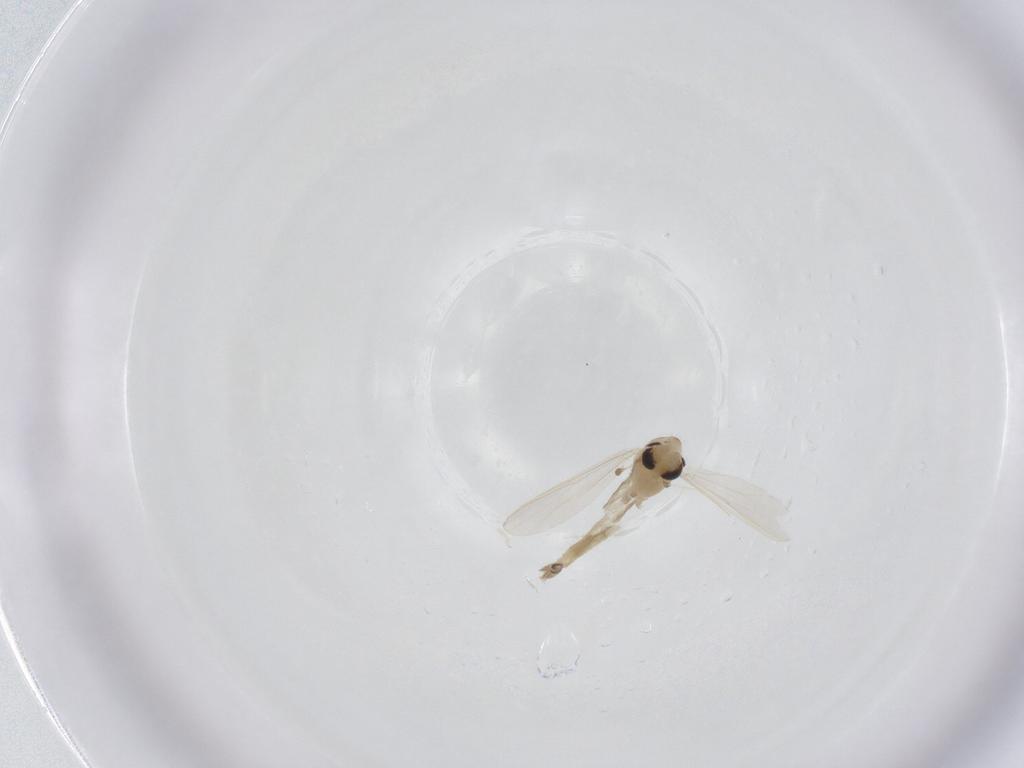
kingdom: Animalia
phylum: Arthropoda
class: Insecta
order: Diptera
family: Chironomidae
